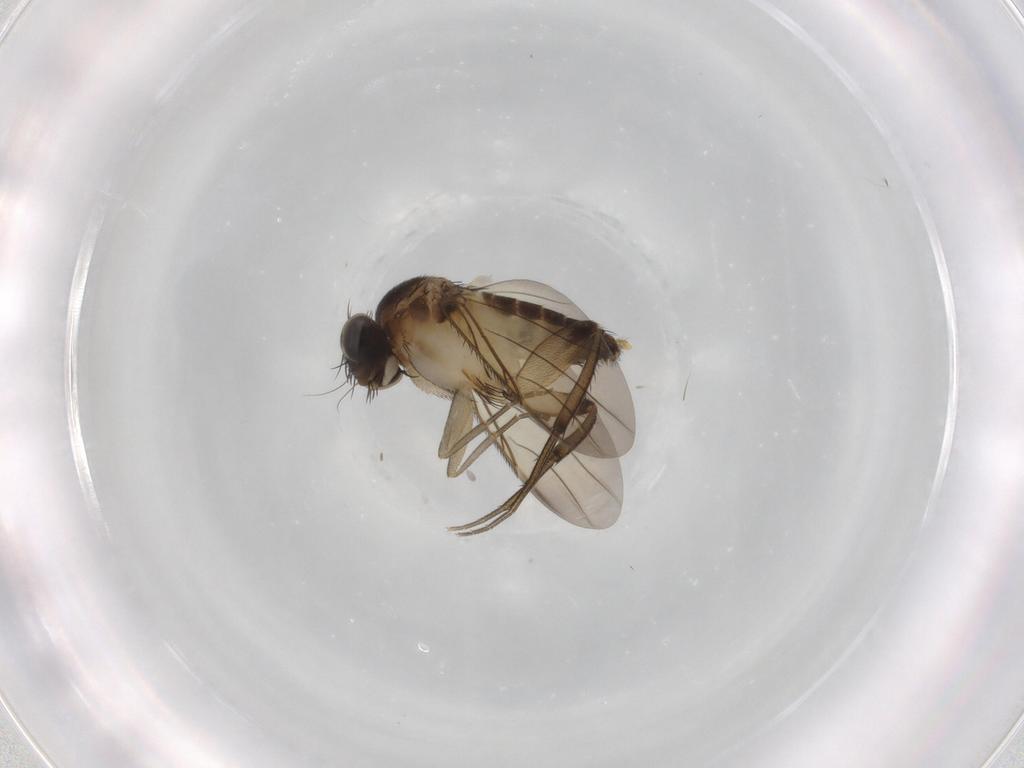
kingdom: Animalia
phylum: Arthropoda
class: Insecta
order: Diptera
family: Phoridae
